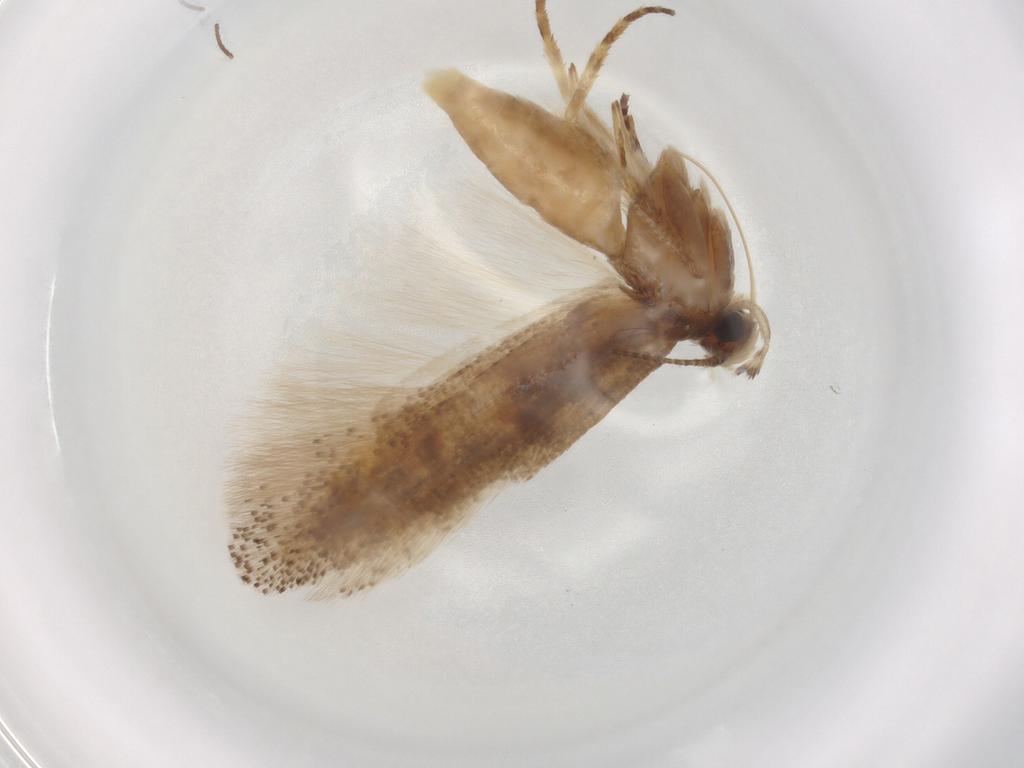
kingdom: Animalia
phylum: Arthropoda
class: Insecta
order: Lepidoptera
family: Gelechiidae
